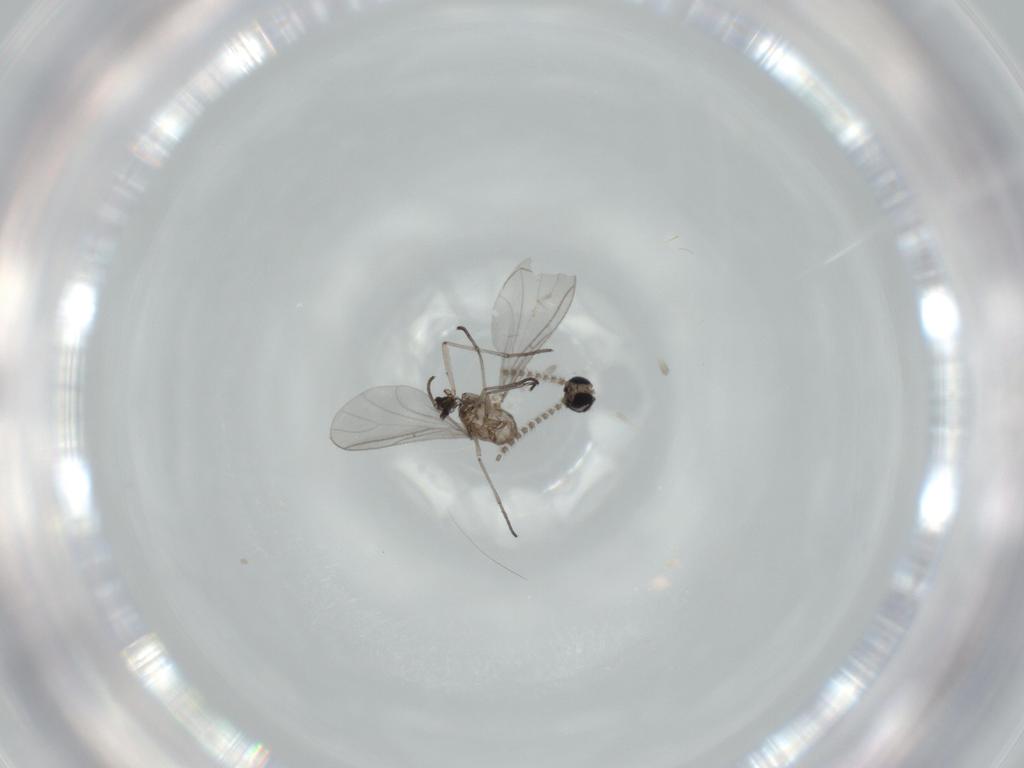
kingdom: Animalia
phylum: Arthropoda
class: Insecta
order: Diptera
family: Sciaridae
